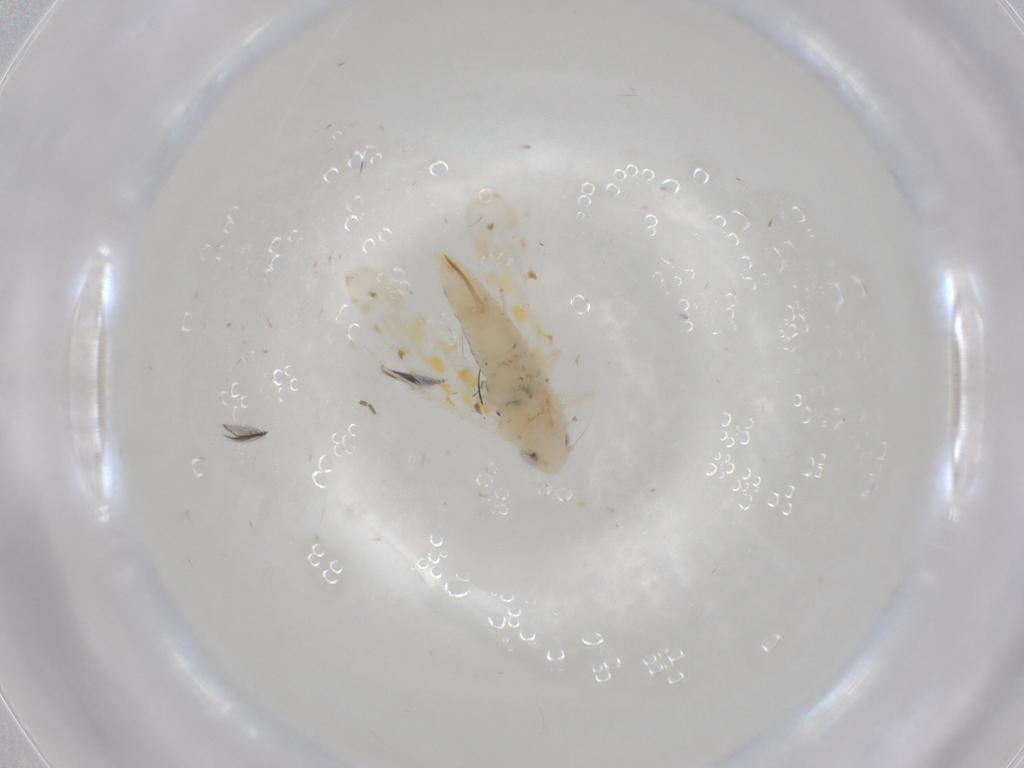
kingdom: Animalia
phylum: Arthropoda
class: Insecta
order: Hemiptera
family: Cicadellidae
